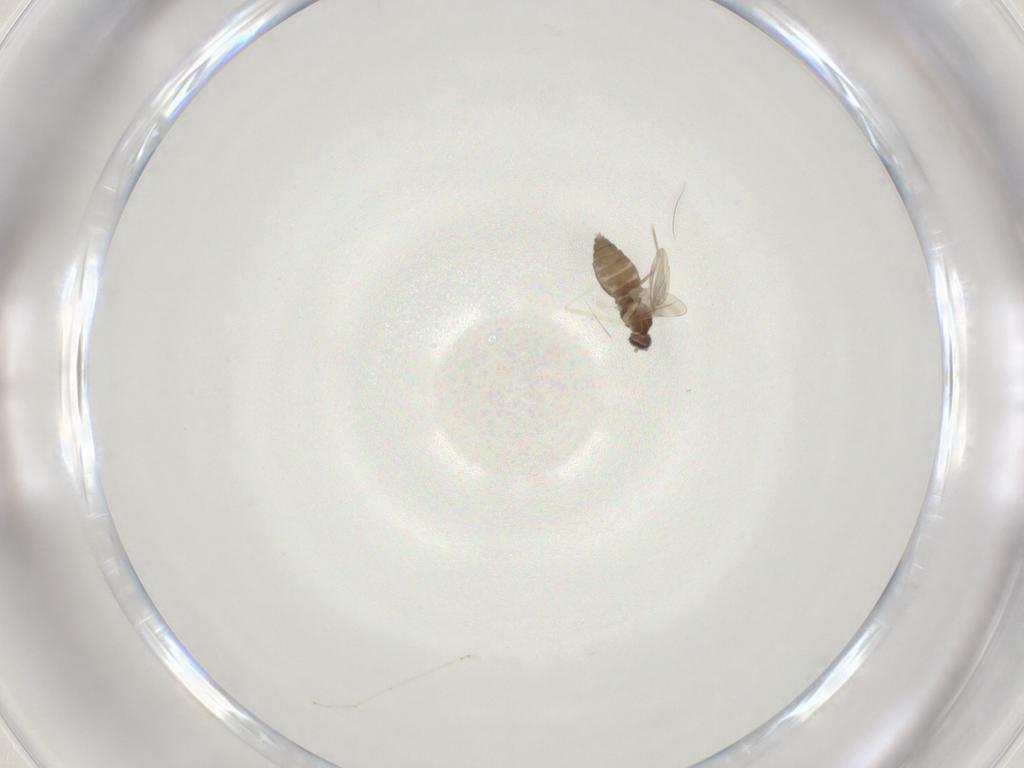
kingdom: Animalia
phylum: Arthropoda
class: Insecta
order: Diptera
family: Cecidomyiidae
